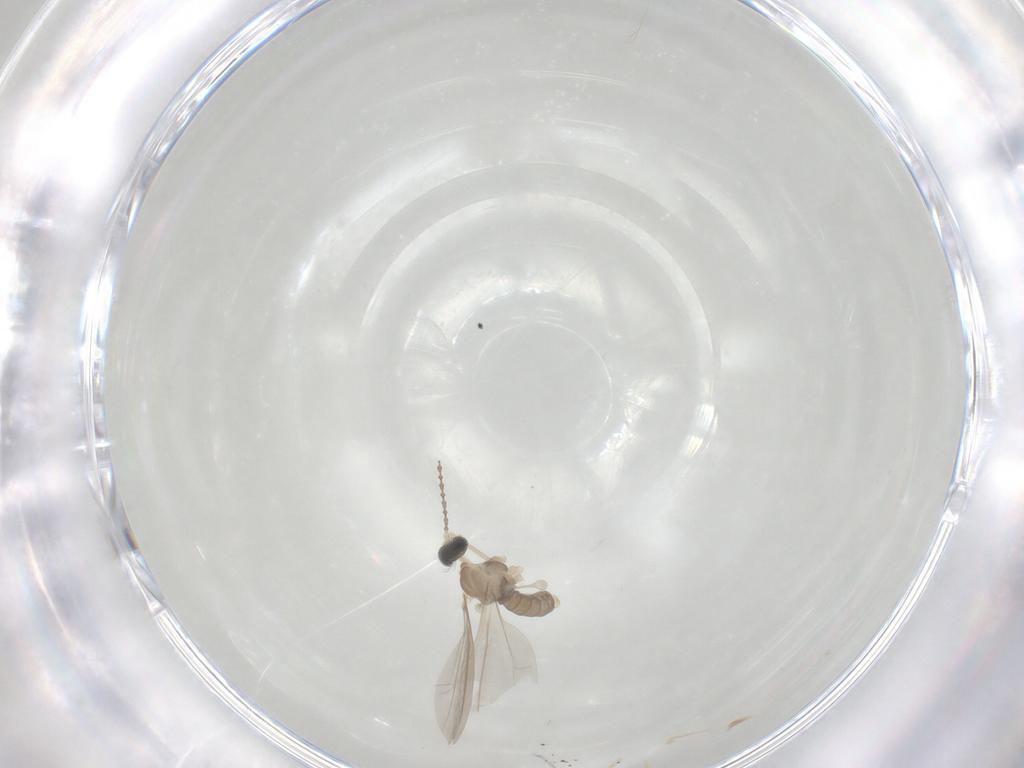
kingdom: Animalia
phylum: Arthropoda
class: Insecta
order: Diptera
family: Cecidomyiidae
